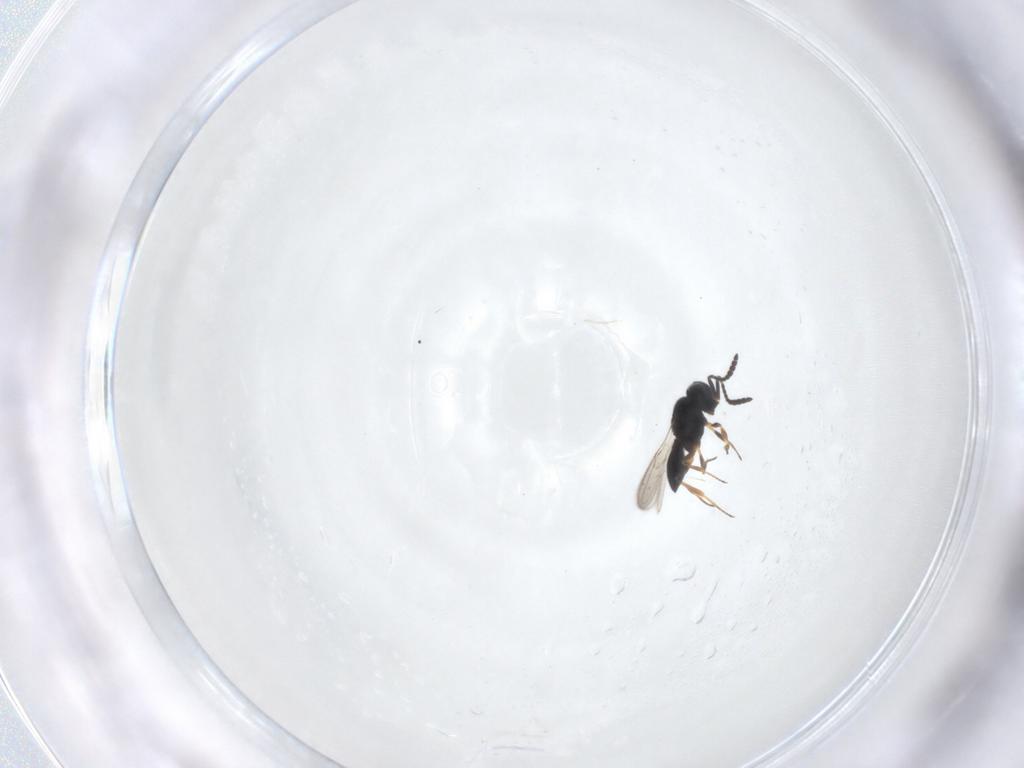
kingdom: Animalia
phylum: Arthropoda
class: Insecta
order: Hymenoptera
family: Scelionidae
